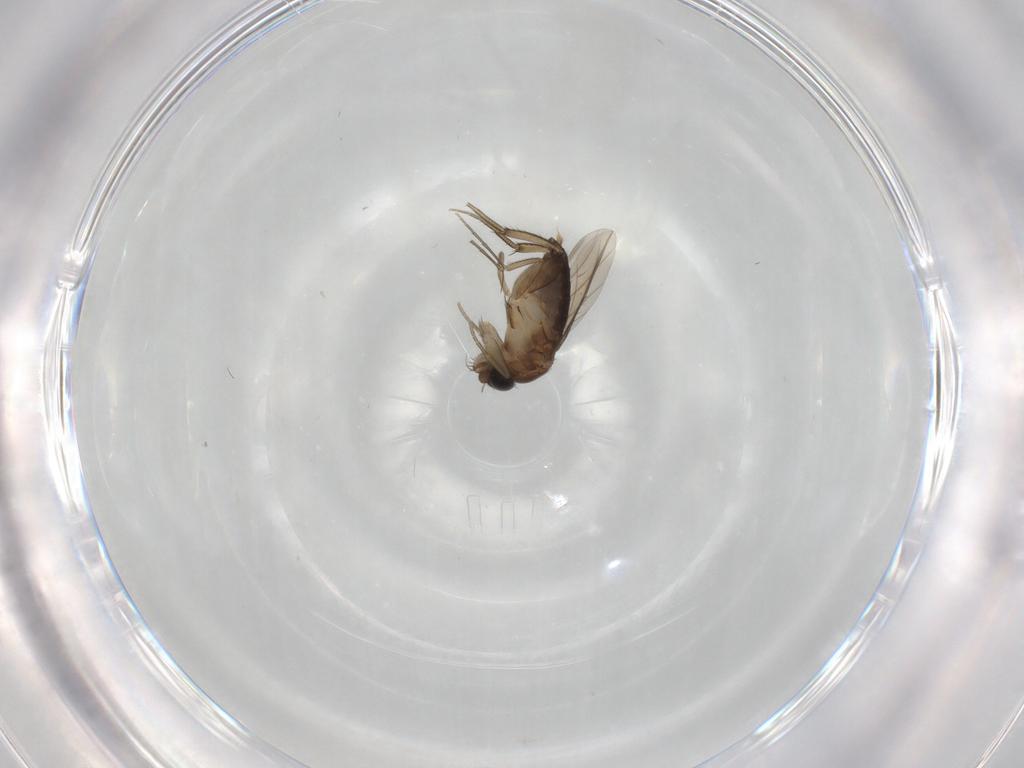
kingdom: Animalia
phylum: Arthropoda
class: Insecta
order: Diptera
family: Phoridae
